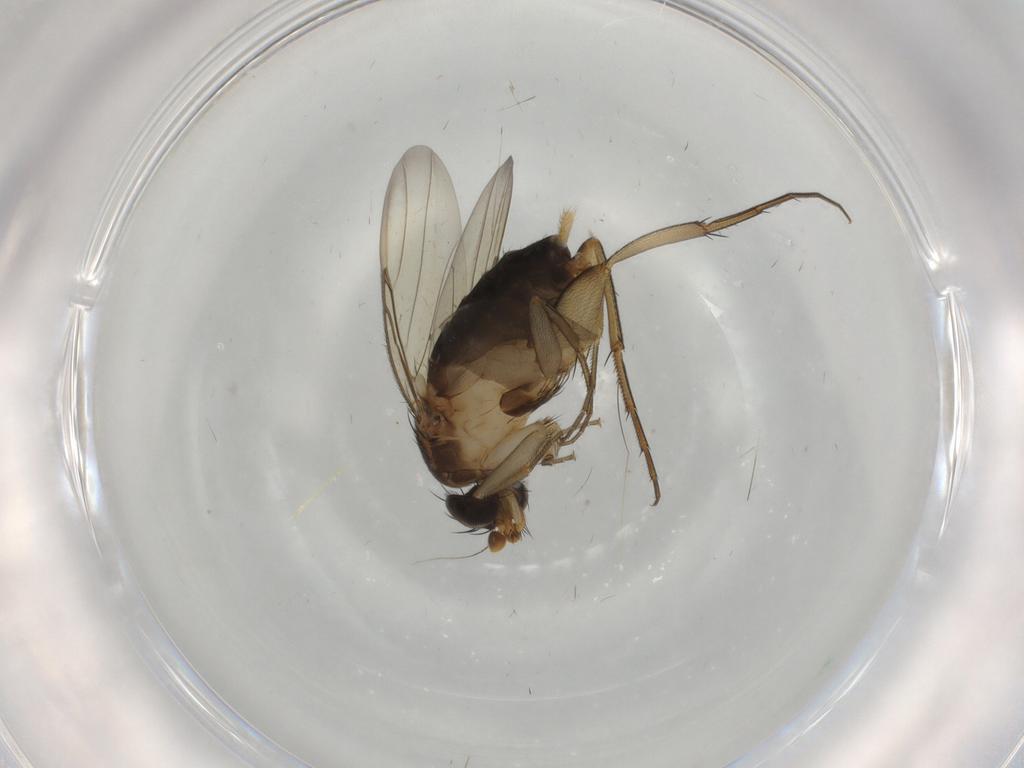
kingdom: Animalia
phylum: Arthropoda
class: Insecta
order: Diptera
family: Phoridae
